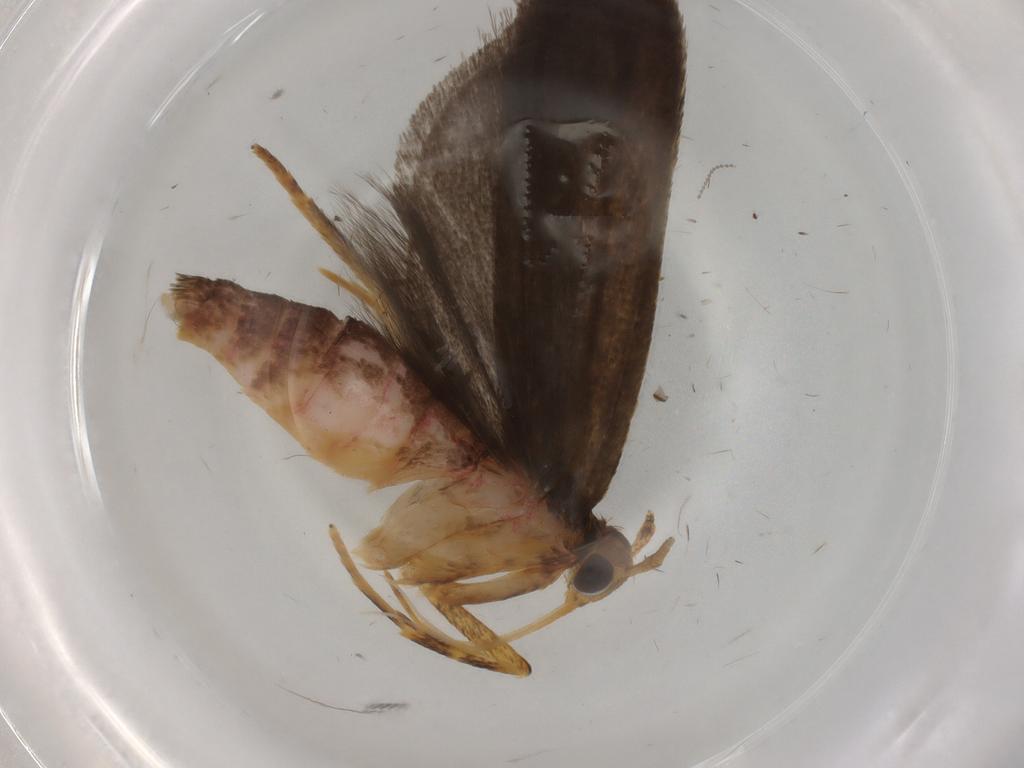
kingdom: Animalia
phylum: Arthropoda
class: Insecta
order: Lepidoptera
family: Autostichidae
